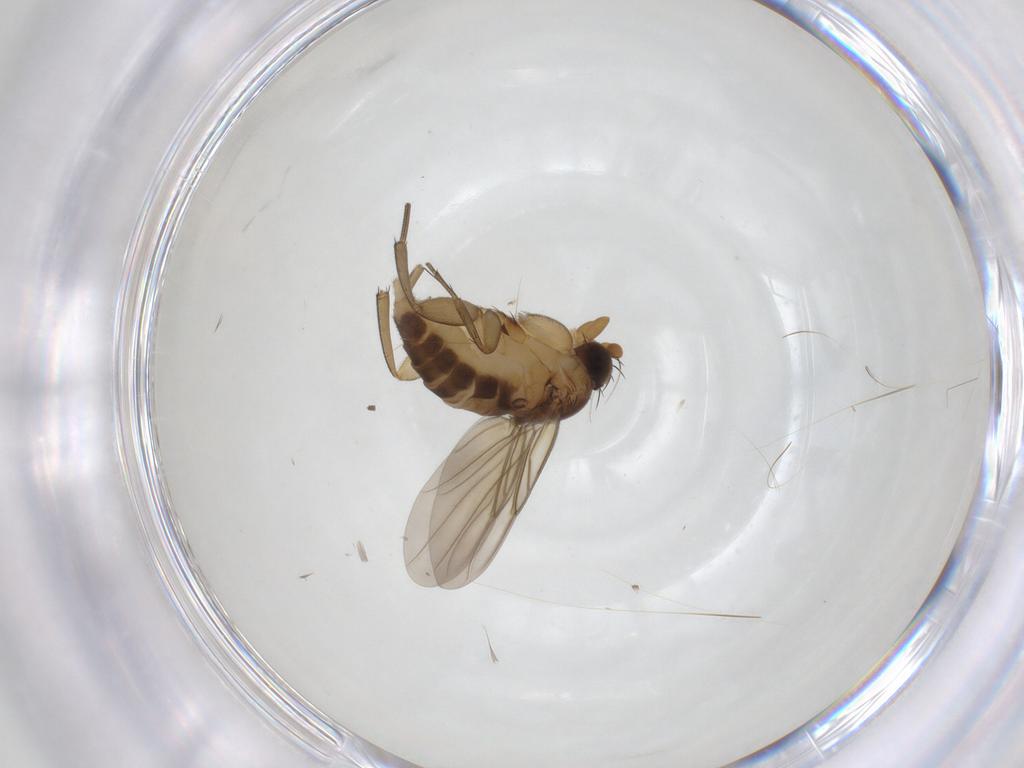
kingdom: Animalia
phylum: Arthropoda
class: Insecta
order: Diptera
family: Phoridae
